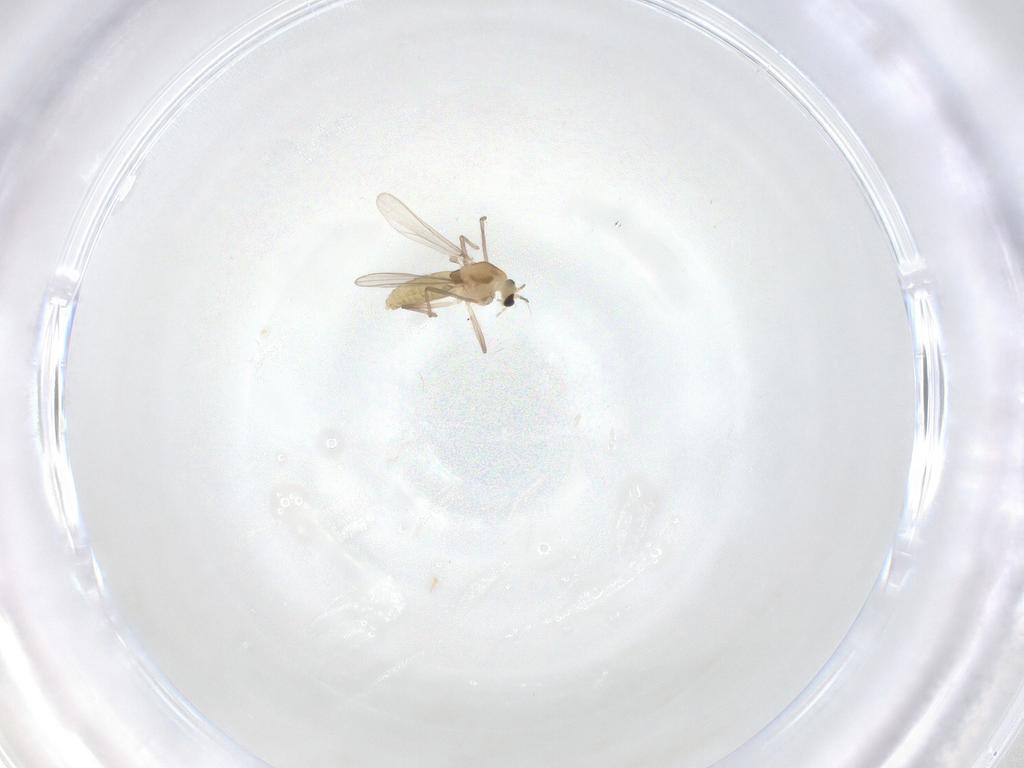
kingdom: Animalia
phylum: Arthropoda
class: Insecta
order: Diptera
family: Chironomidae
